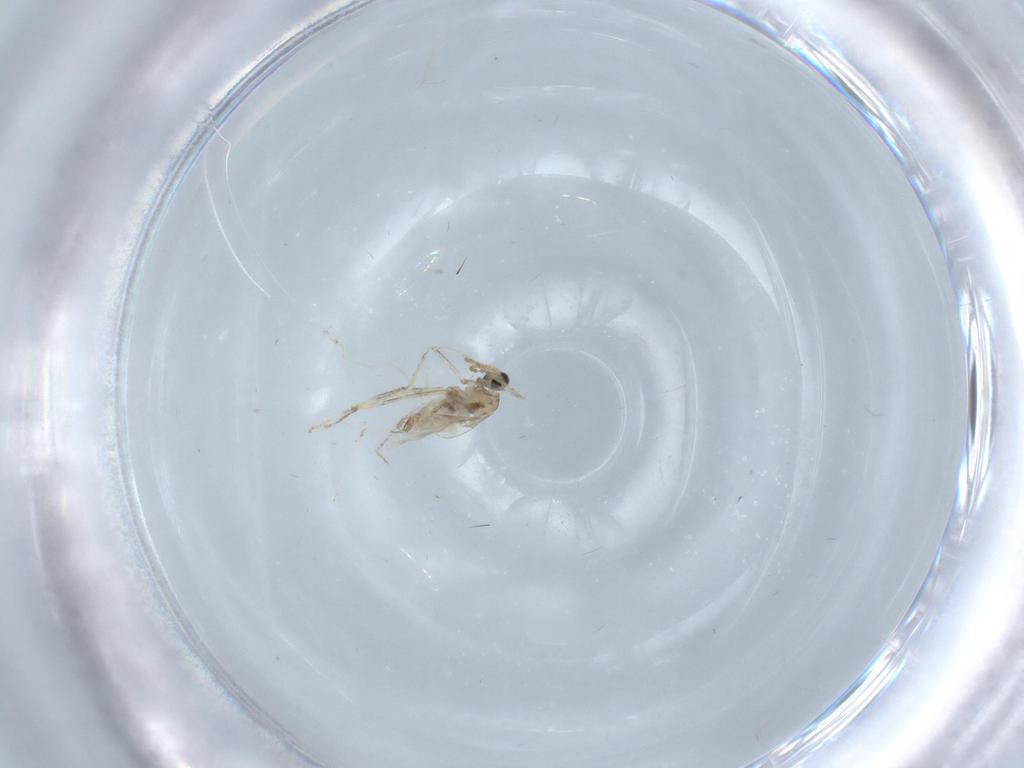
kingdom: Animalia
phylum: Arthropoda
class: Insecta
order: Diptera
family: Cecidomyiidae
